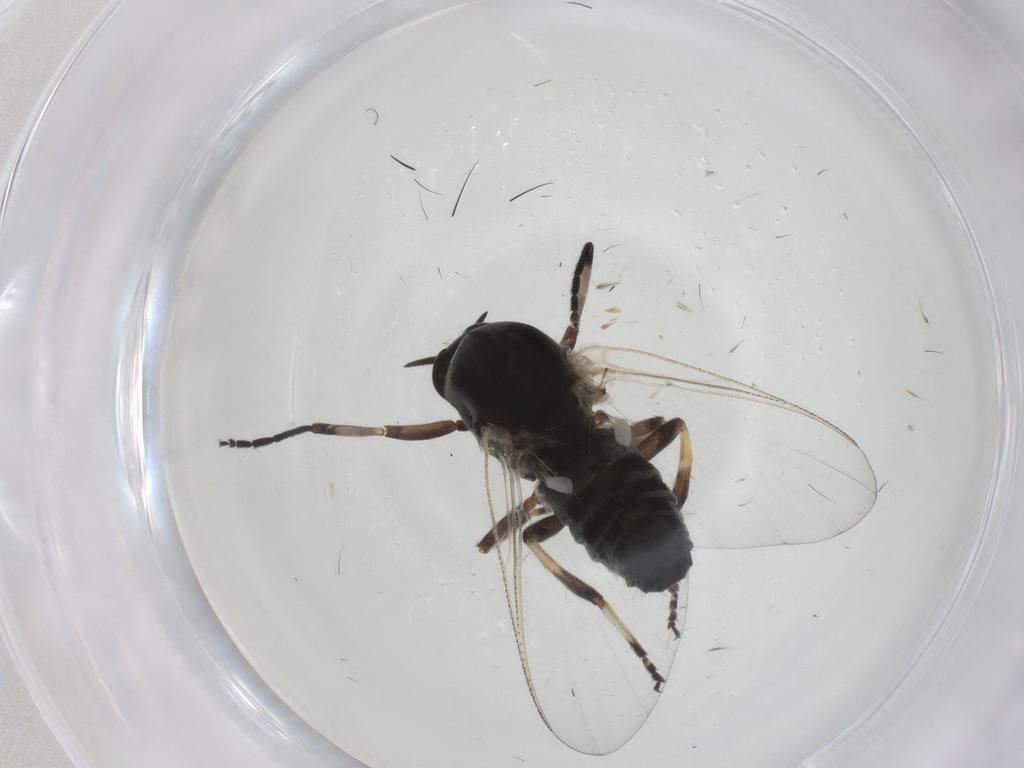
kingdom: Animalia
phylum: Arthropoda
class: Insecta
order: Diptera
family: Simuliidae
